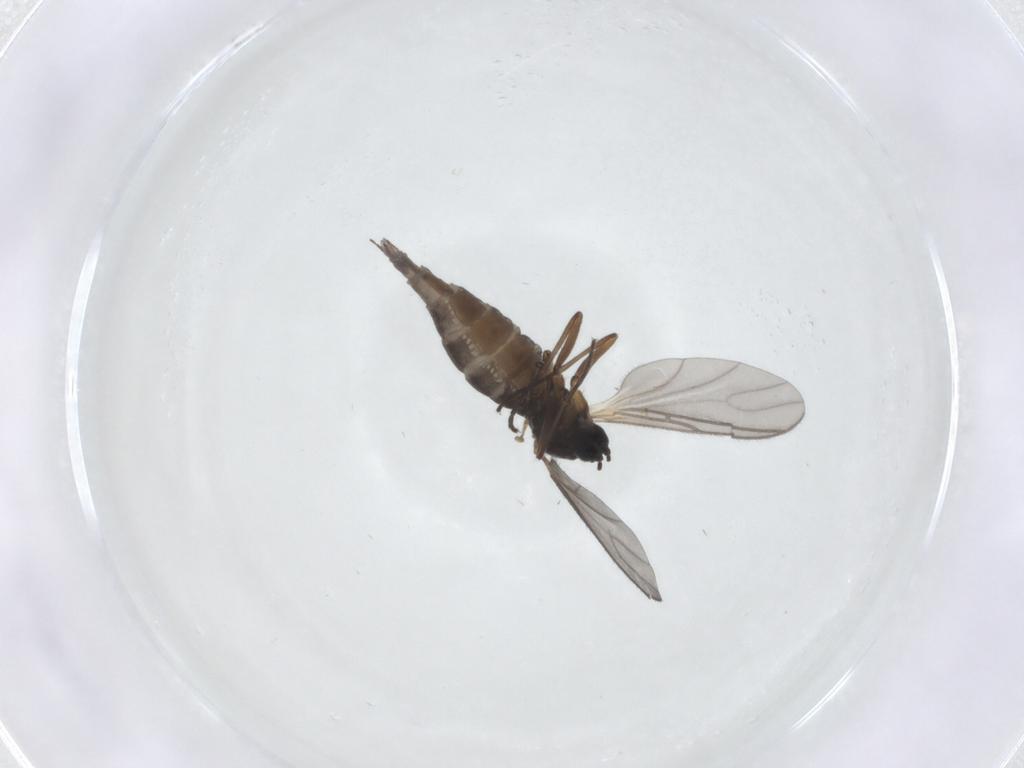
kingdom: Animalia
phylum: Arthropoda
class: Insecta
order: Diptera
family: Sciaridae
